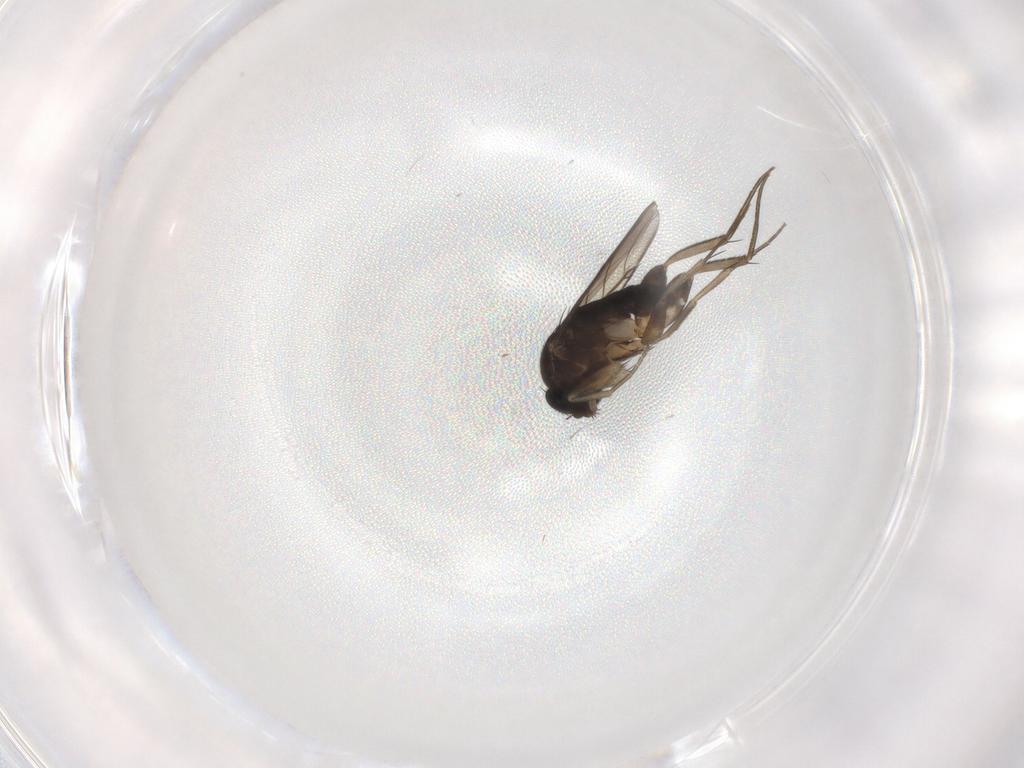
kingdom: Animalia
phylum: Arthropoda
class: Insecta
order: Diptera
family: Phoridae
